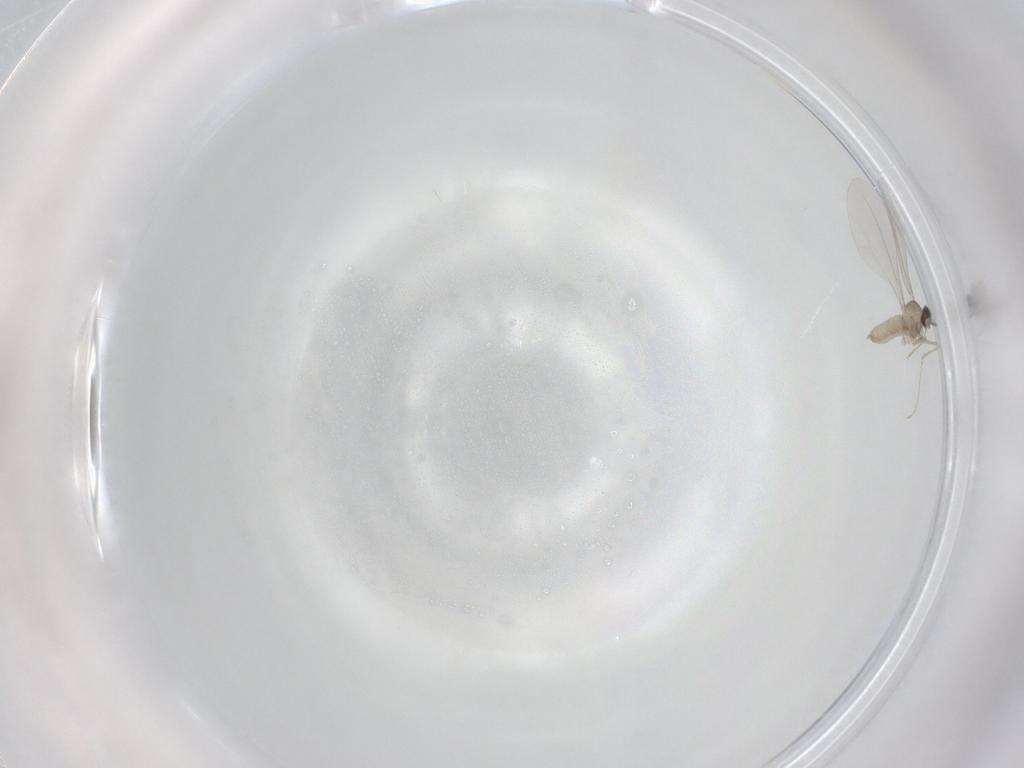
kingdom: Animalia
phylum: Arthropoda
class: Insecta
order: Diptera
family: Cecidomyiidae
